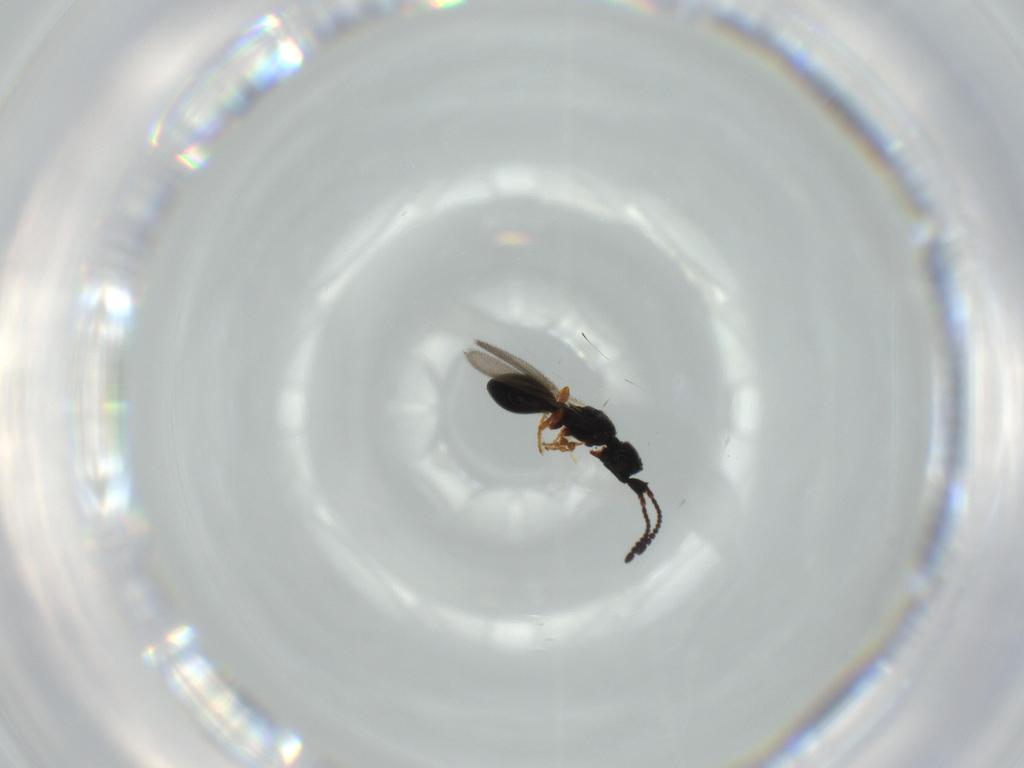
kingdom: Animalia
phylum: Arthropoda
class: Insecta
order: Hymenoptera
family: Diapriidae
